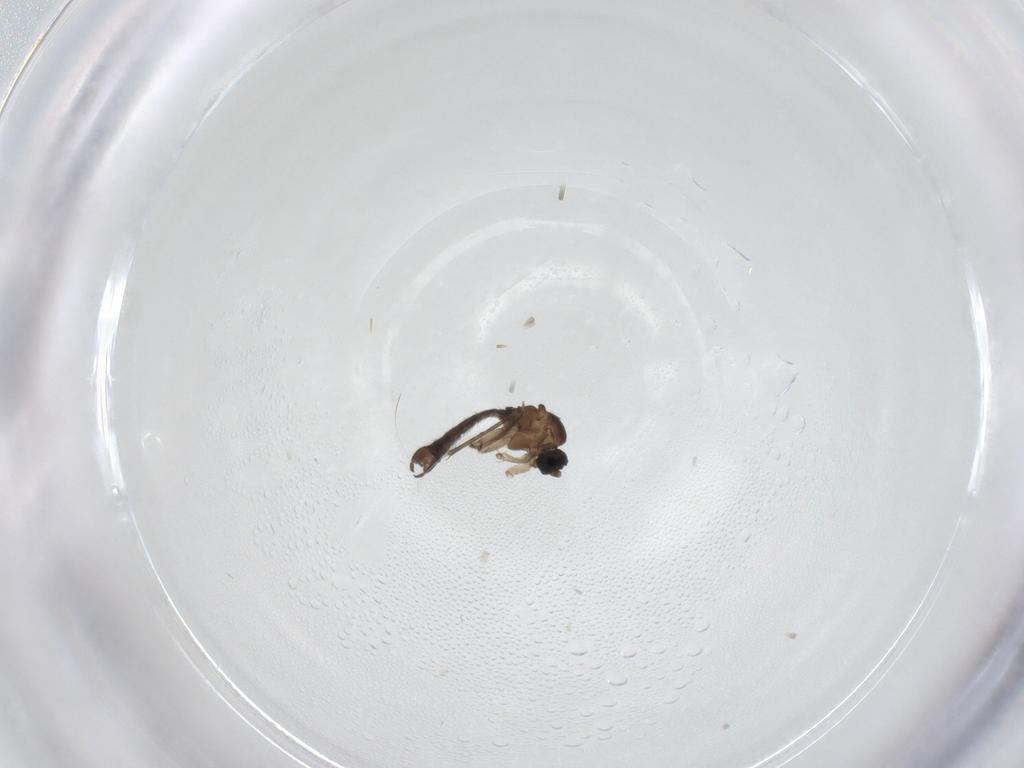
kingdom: Animalia
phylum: Arthropoda
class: Insecta
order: Diptera
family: Sciaridae
